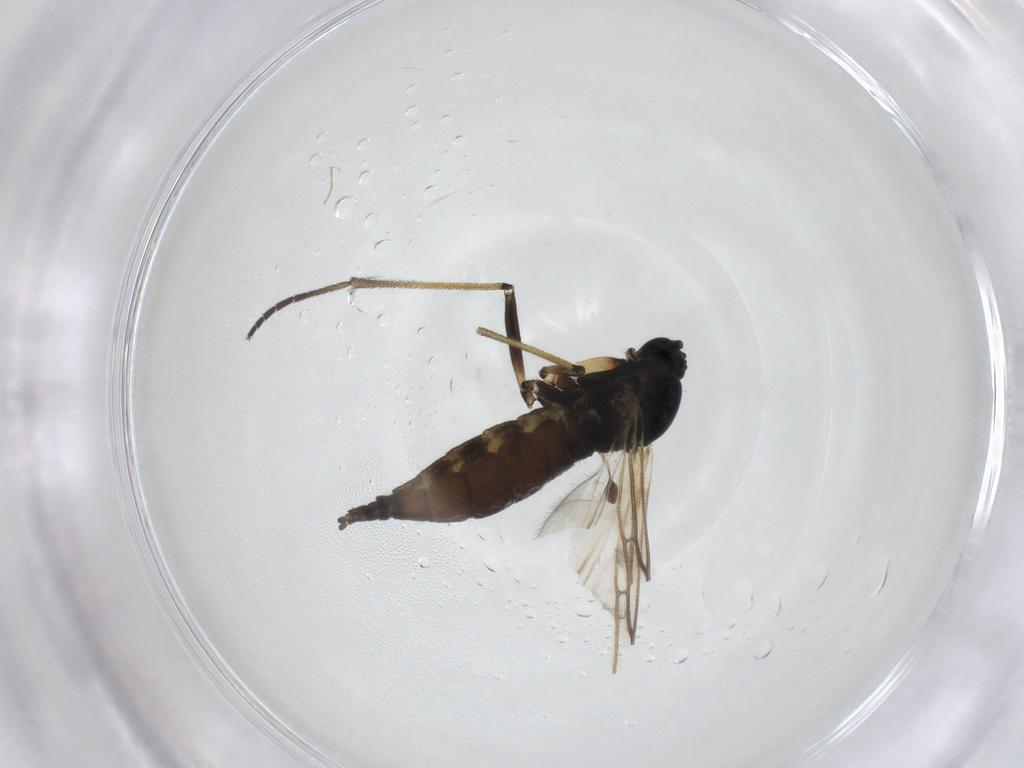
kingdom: Animalia
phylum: Arthropoda
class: Insecta
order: Diptera
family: Sciaridae
